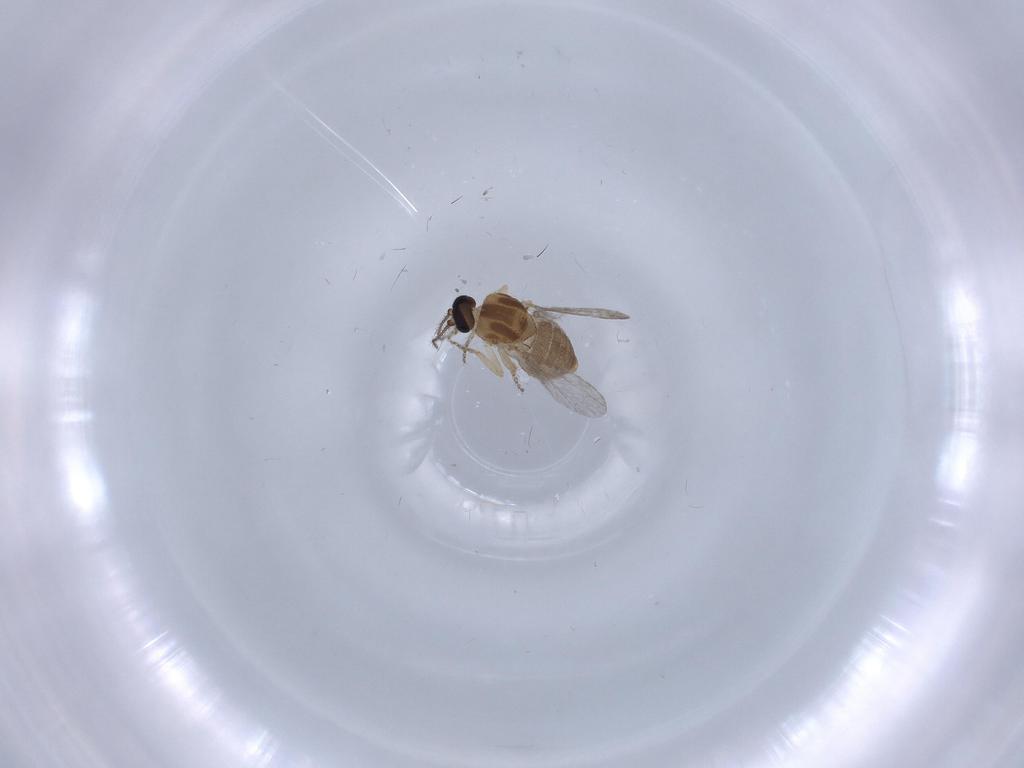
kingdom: Animalia
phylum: Arthropoda
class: Insecta
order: Diptera
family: Ceratopogonidae
